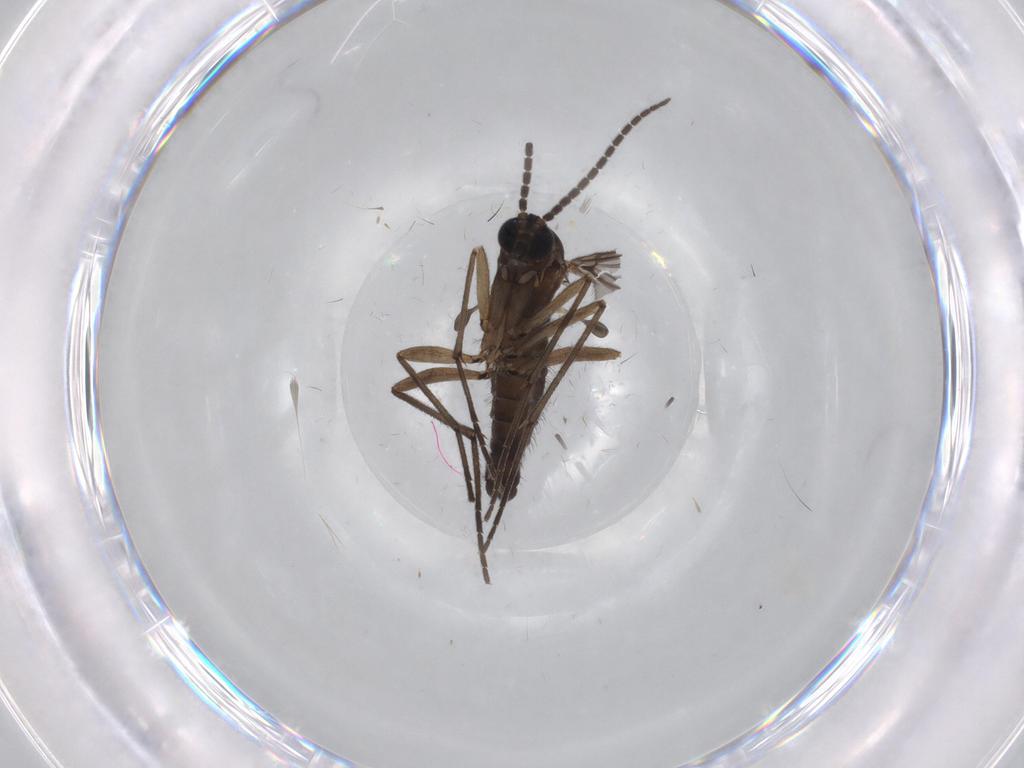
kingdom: Animalia
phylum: Arthropoda
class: Insecta
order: Diptera
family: Sciaridae
